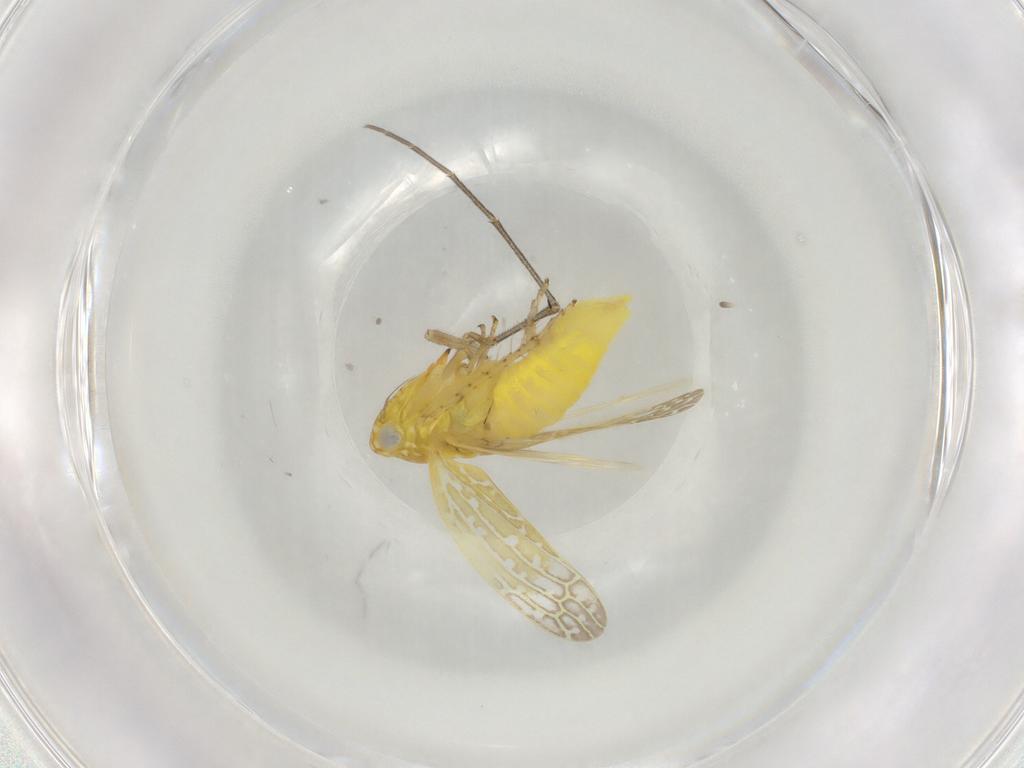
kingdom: Animalia
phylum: Arthropoda
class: Insecta
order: Hemiptera
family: Cicadellidae
